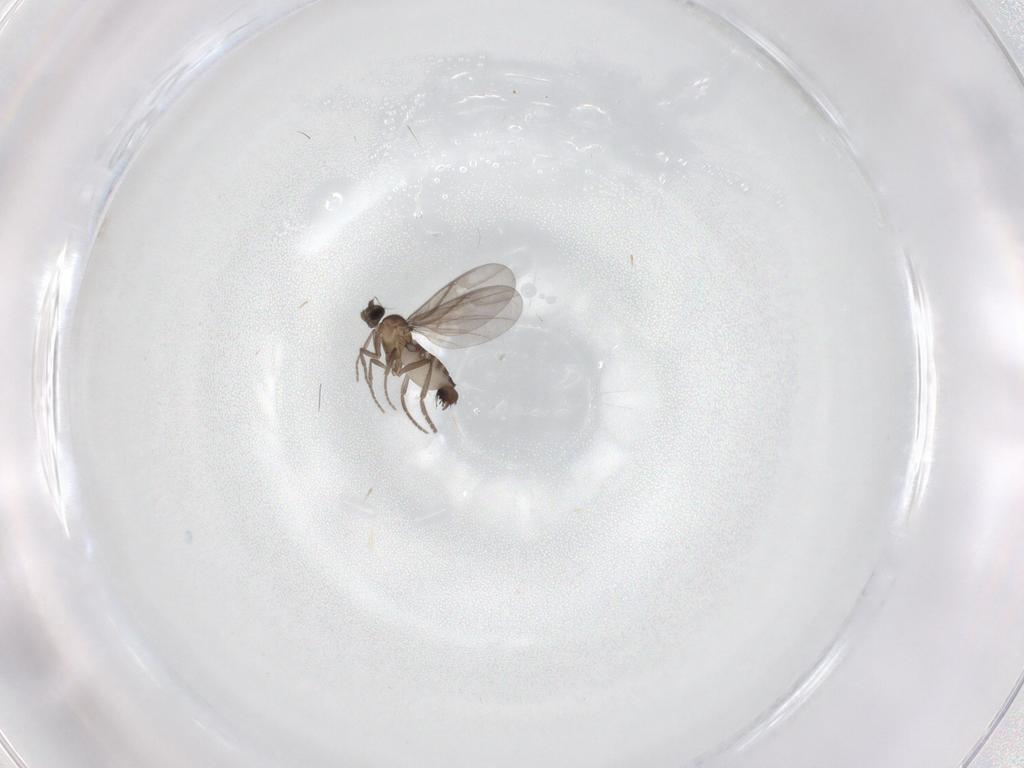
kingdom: Animalia
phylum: Arthropoda
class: Insecta
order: Diptera
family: Phoridae
